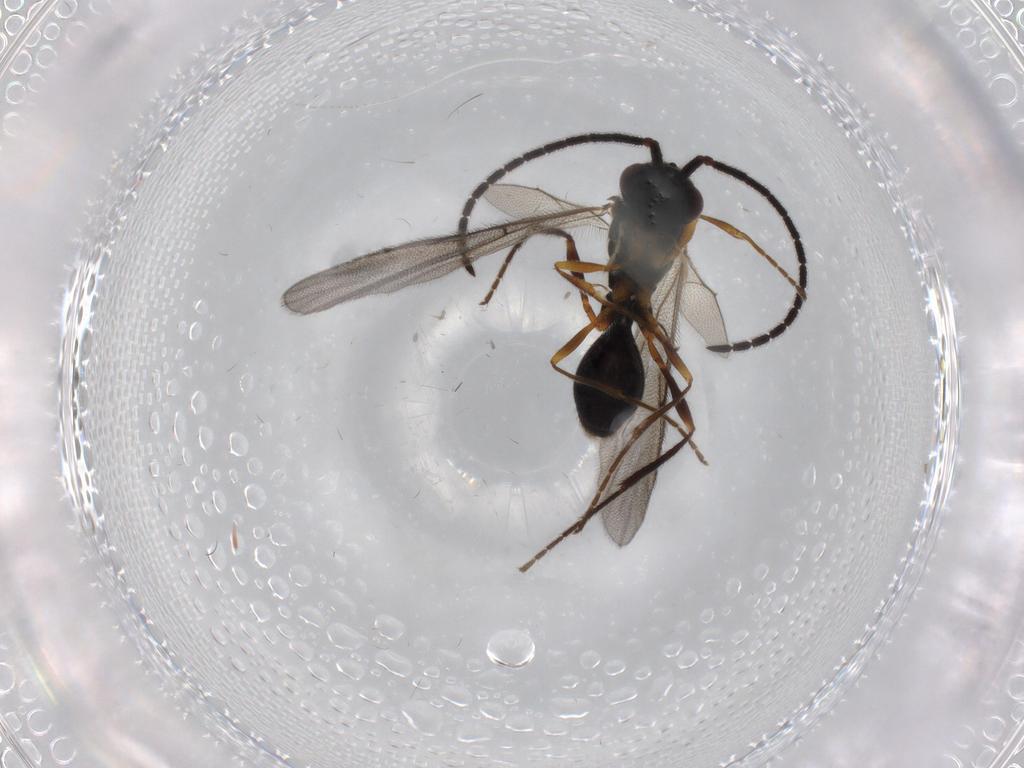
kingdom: Animalia
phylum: Arthropoda
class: Insecta
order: Hymenoptera
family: Diapriidae
